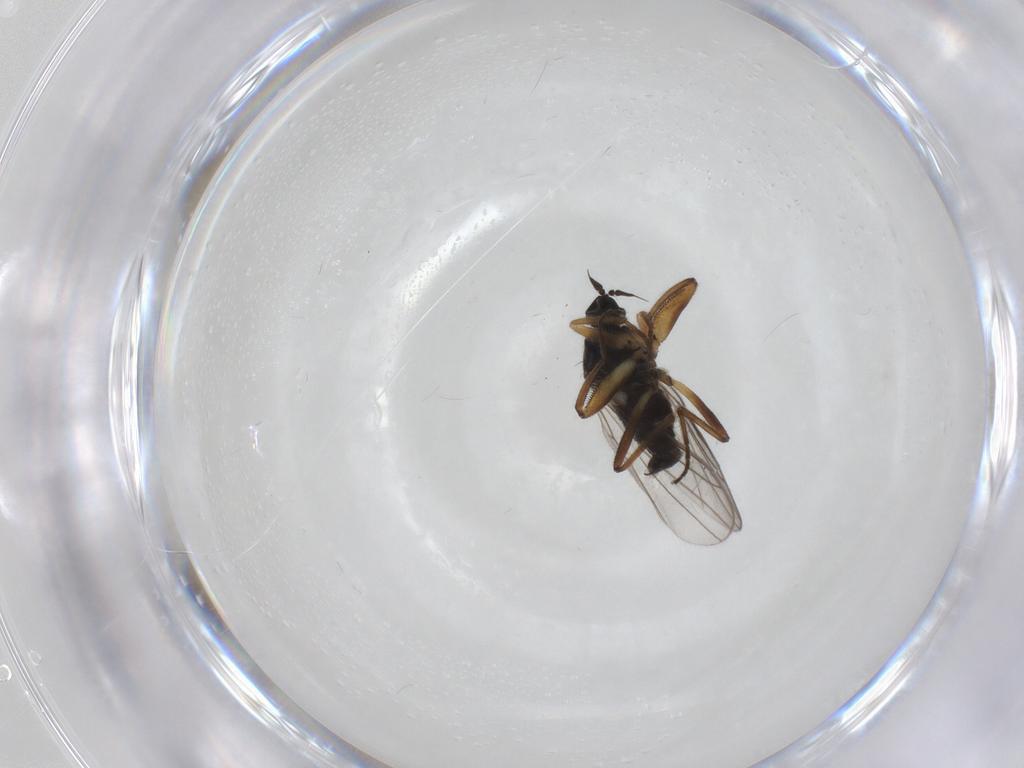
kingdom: Animalia
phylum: Arthropoda
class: Insecta
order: Diptera
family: Hybotidae
